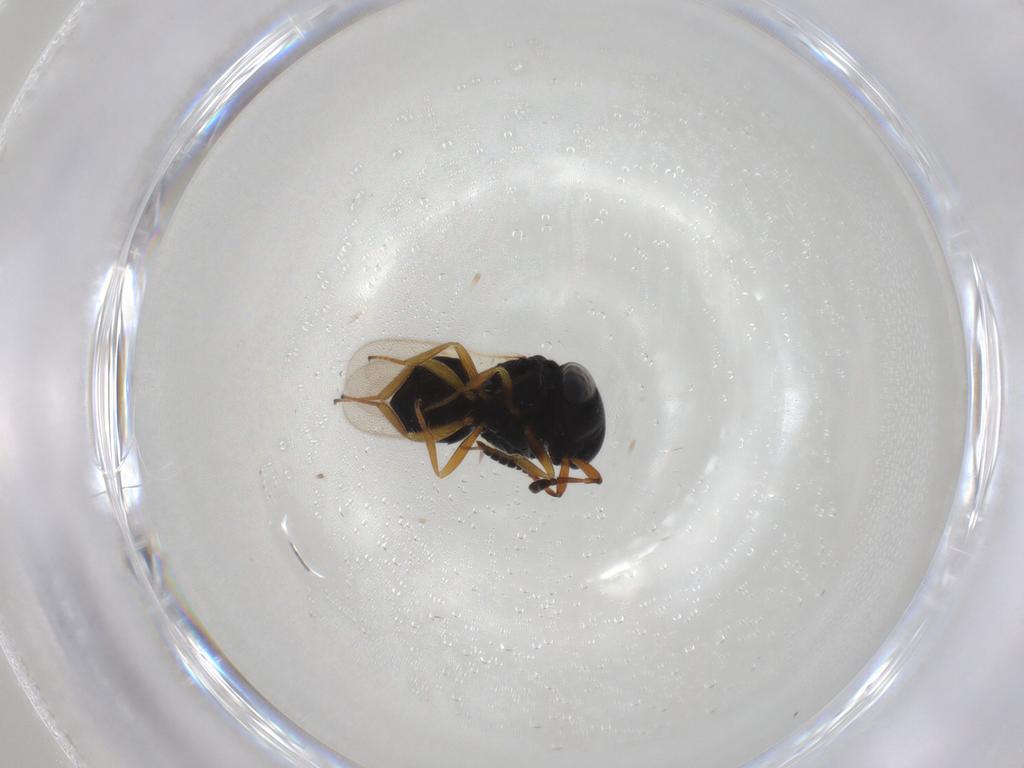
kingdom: Animalia
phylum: Arthropoda
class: Insecta
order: Hymenoptera
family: Scelionidae
